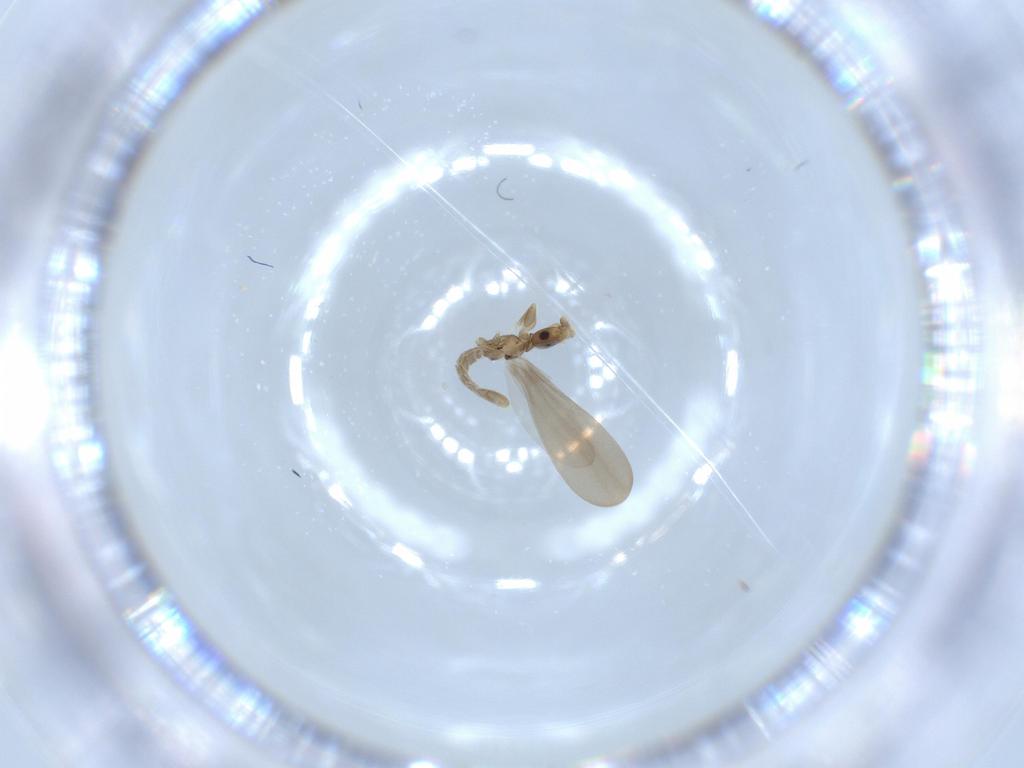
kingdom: Animalia
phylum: Arthropoda
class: Insecta
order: Psocodea
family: Liposcelididae
